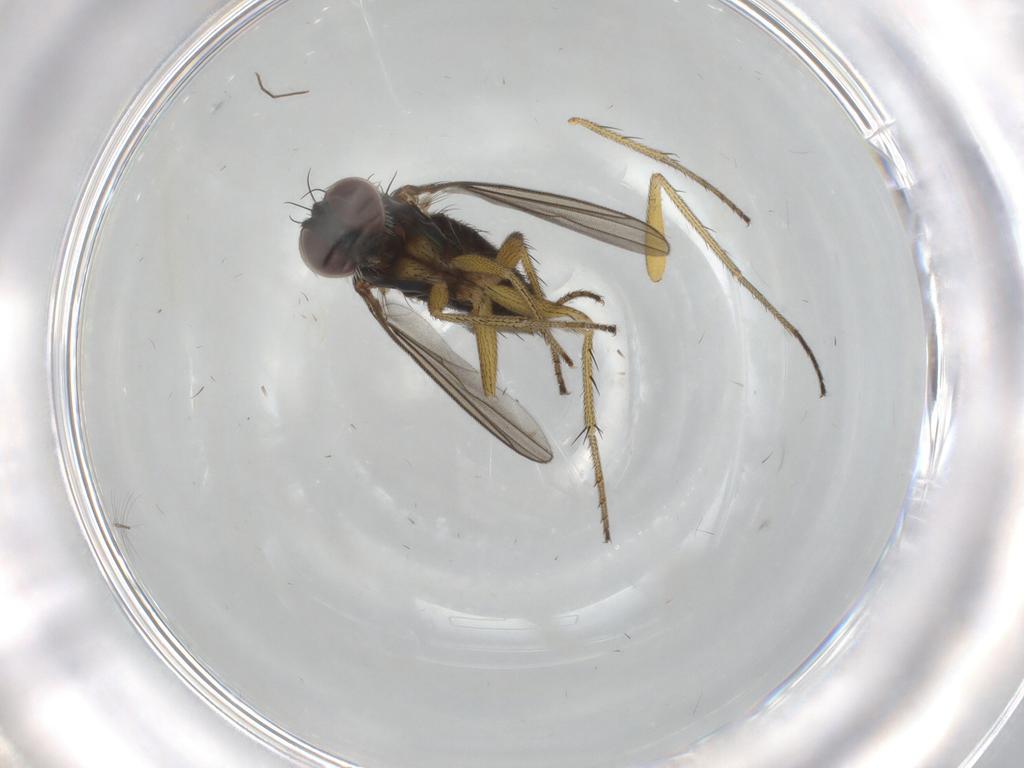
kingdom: Animalia
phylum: Arthropoda
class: Insecta
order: Diptera
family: Dolichopodidae
